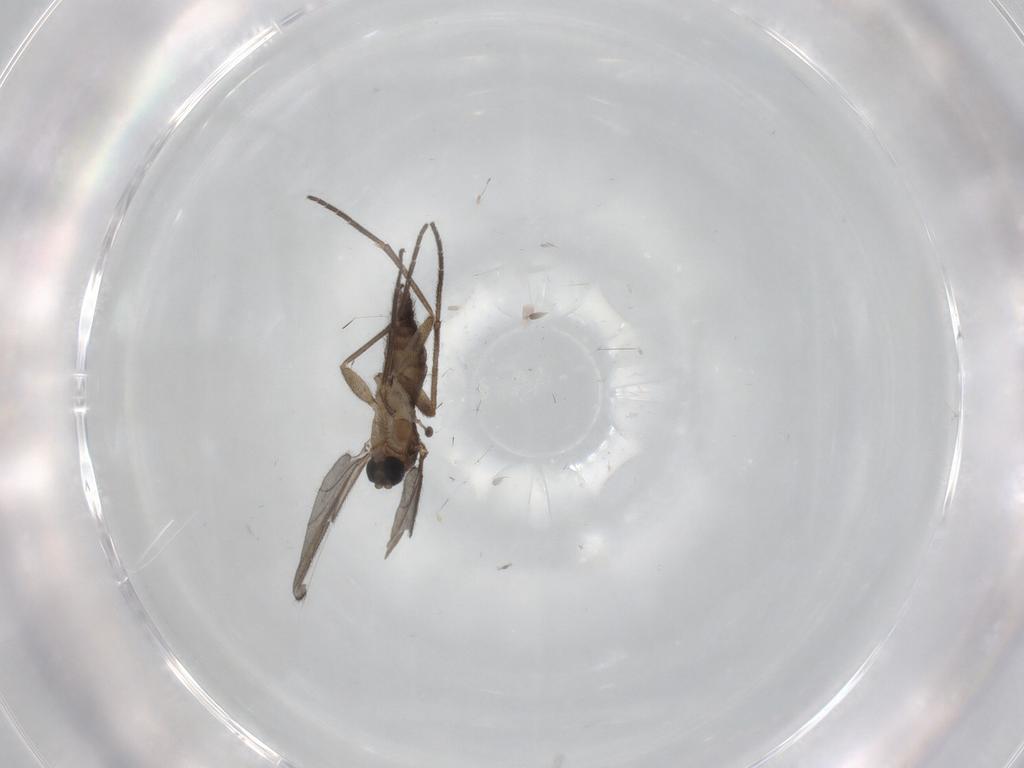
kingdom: Animalia
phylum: Arthropoda
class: Insecta
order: Diptera
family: Sciaridae
